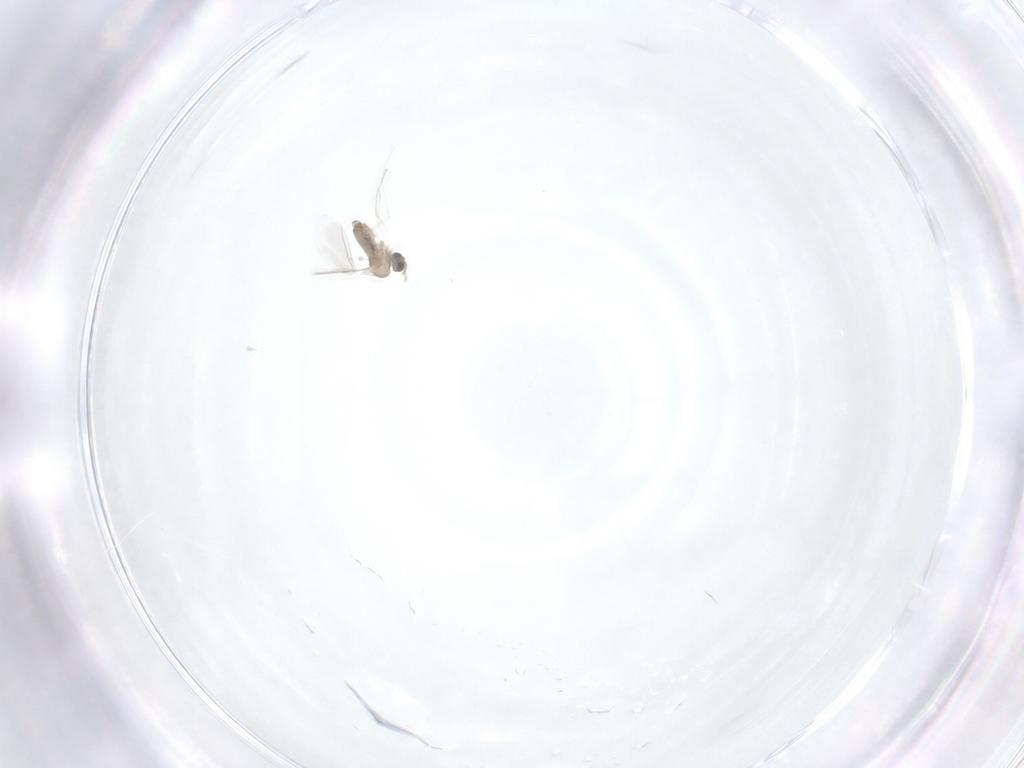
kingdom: Animalia
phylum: Arthropoda
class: Insecta
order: Diptera
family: Cecidomyiidae
